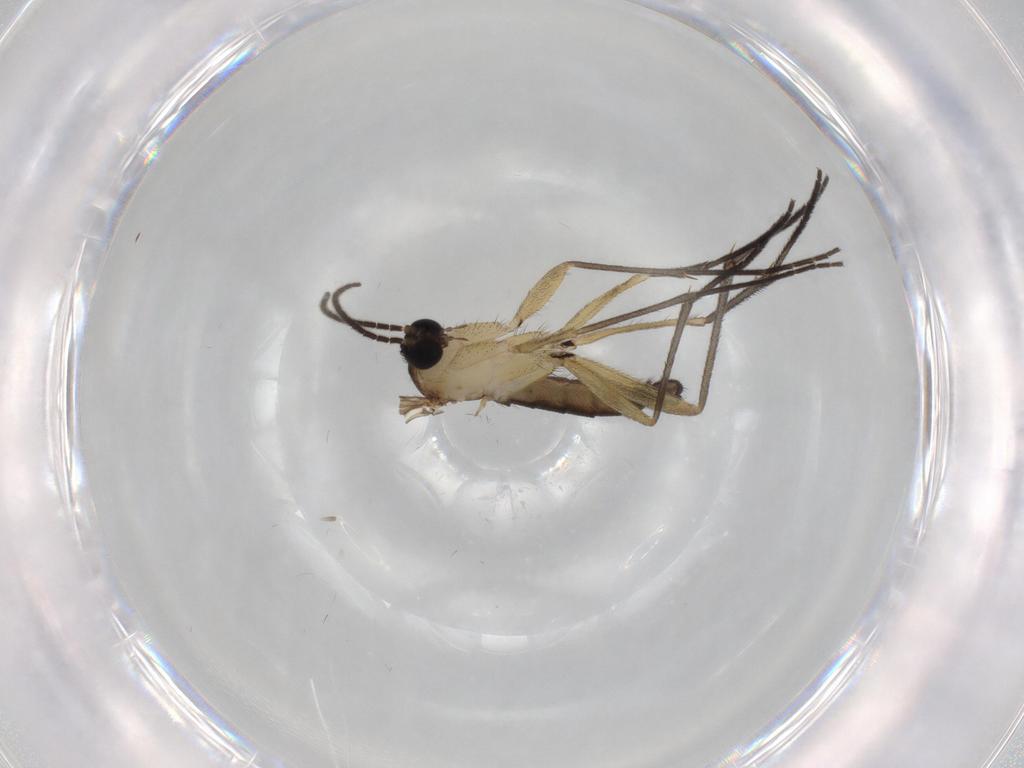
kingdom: Animalia
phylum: Arthropoda
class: Insecta
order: Diptera
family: Sciaridae
